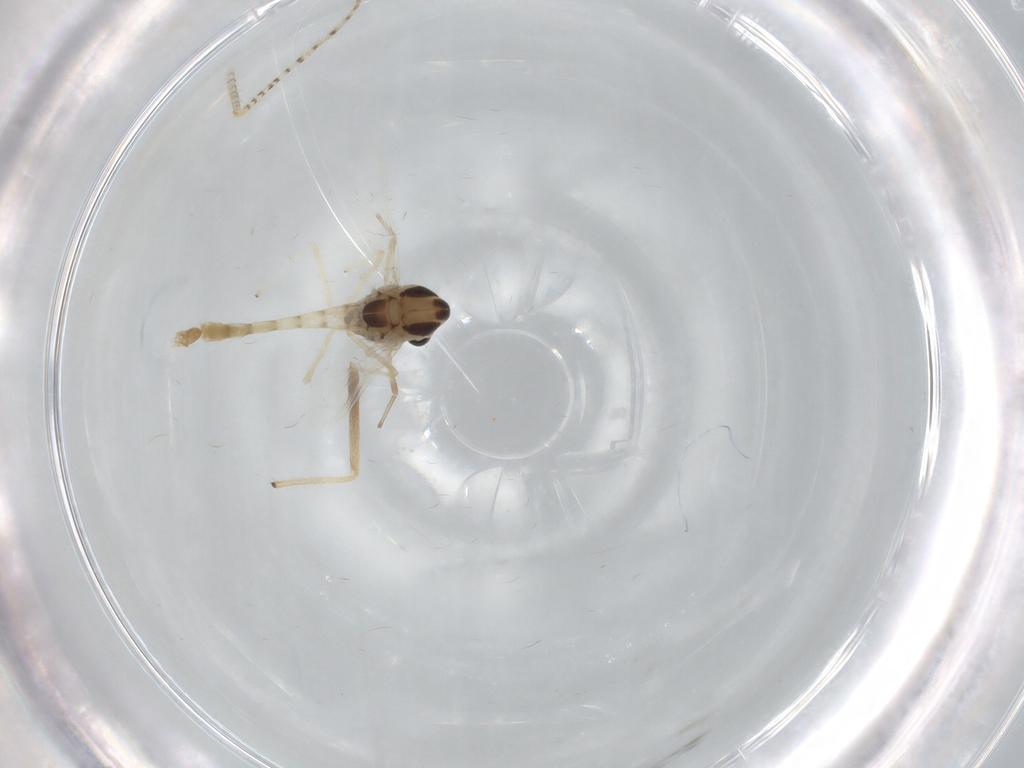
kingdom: Animalia
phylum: Arthropoda
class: Insecta
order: Diptera
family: Chironomidae
